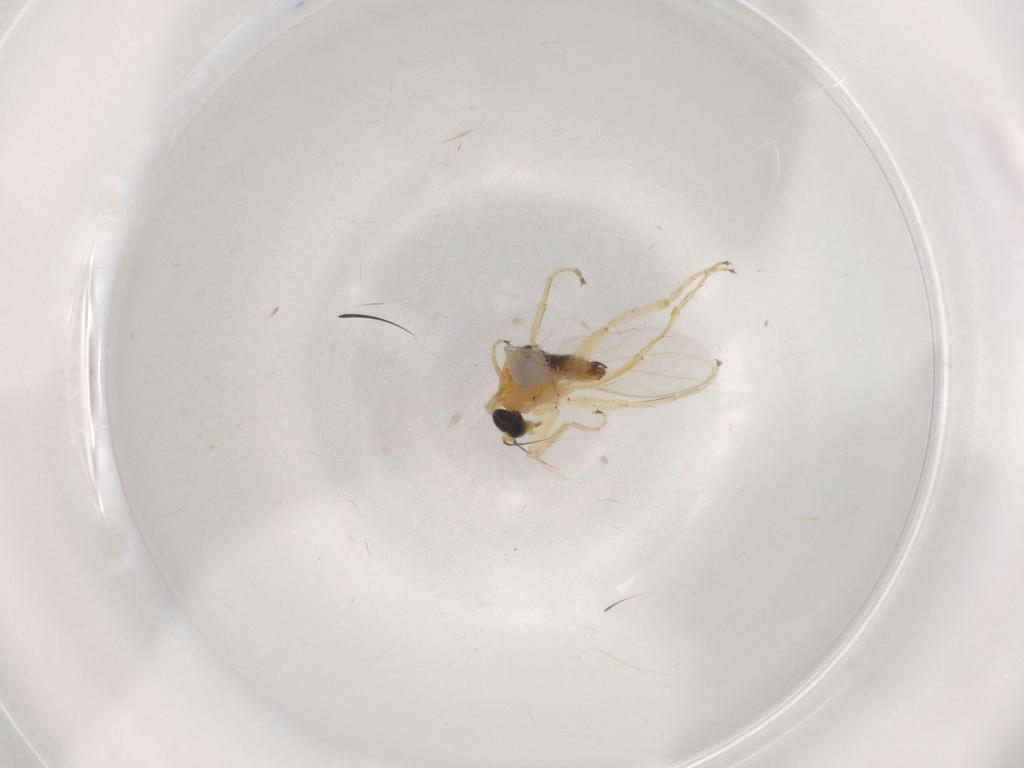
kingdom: Animalia
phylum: Arthropoda
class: Insecta
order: Diptera
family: Hybotidae
